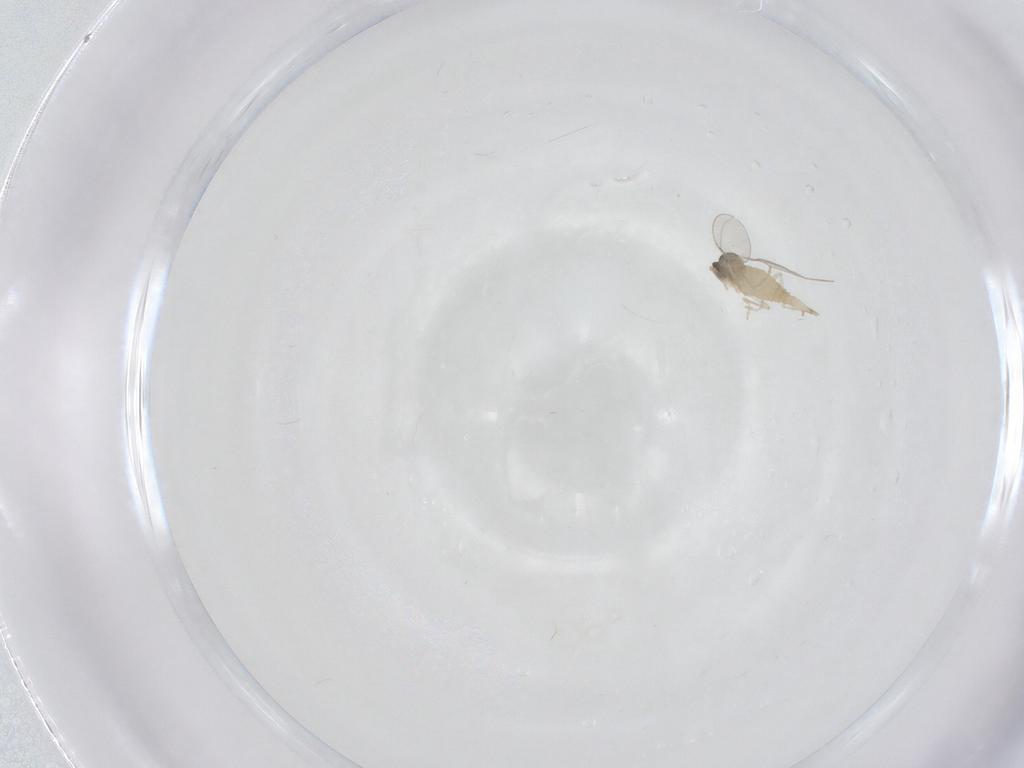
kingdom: Animalia
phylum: Arthropoda
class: Insecta
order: Diptera
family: Cecidomyiidae
